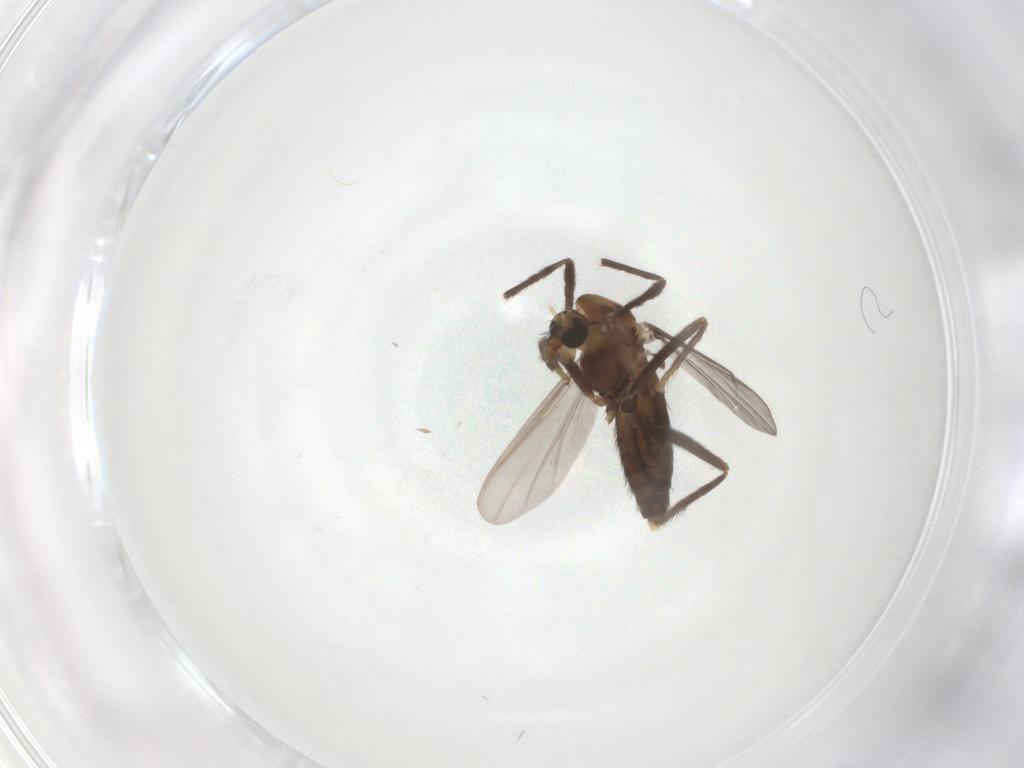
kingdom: Animalia
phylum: Arthropoda
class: Insecta
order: Diptera
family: Chironomidae
